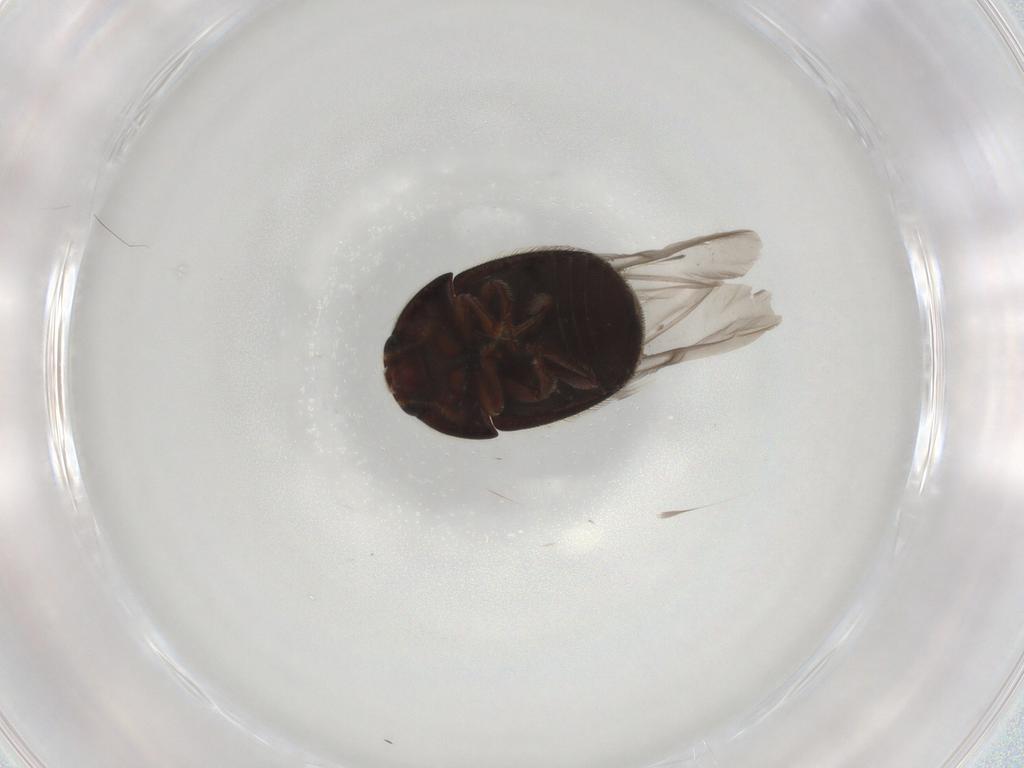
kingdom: Animalia
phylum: Arthropoda
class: Insecta
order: Coleoptera
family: Nitidulidae
